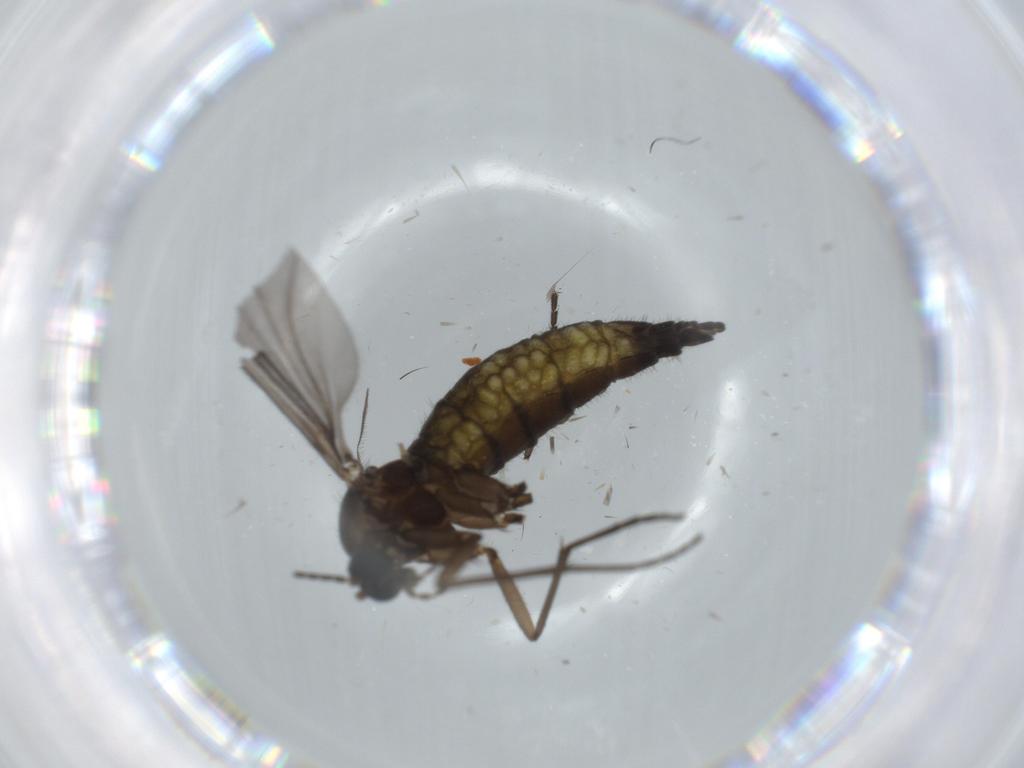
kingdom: Animalia
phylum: Arthropoda
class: Insecta
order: Diptera
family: Sciaridae
